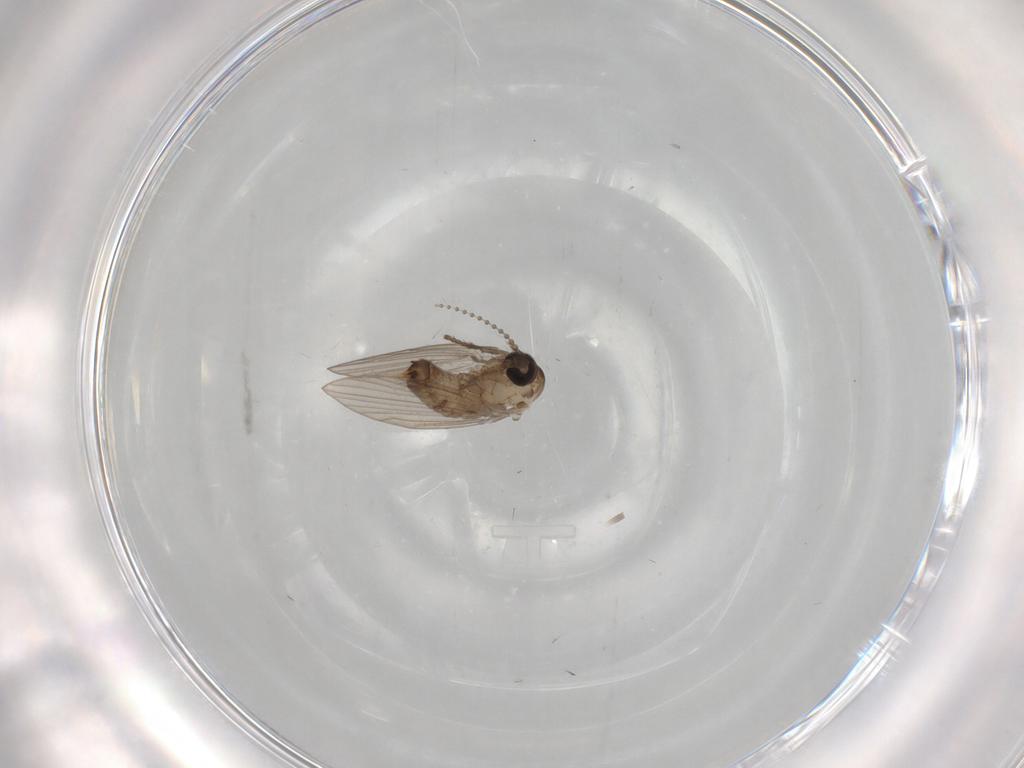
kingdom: Animalia
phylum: Arthropoda
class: Insecta
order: Diptera
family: Psychodidae
